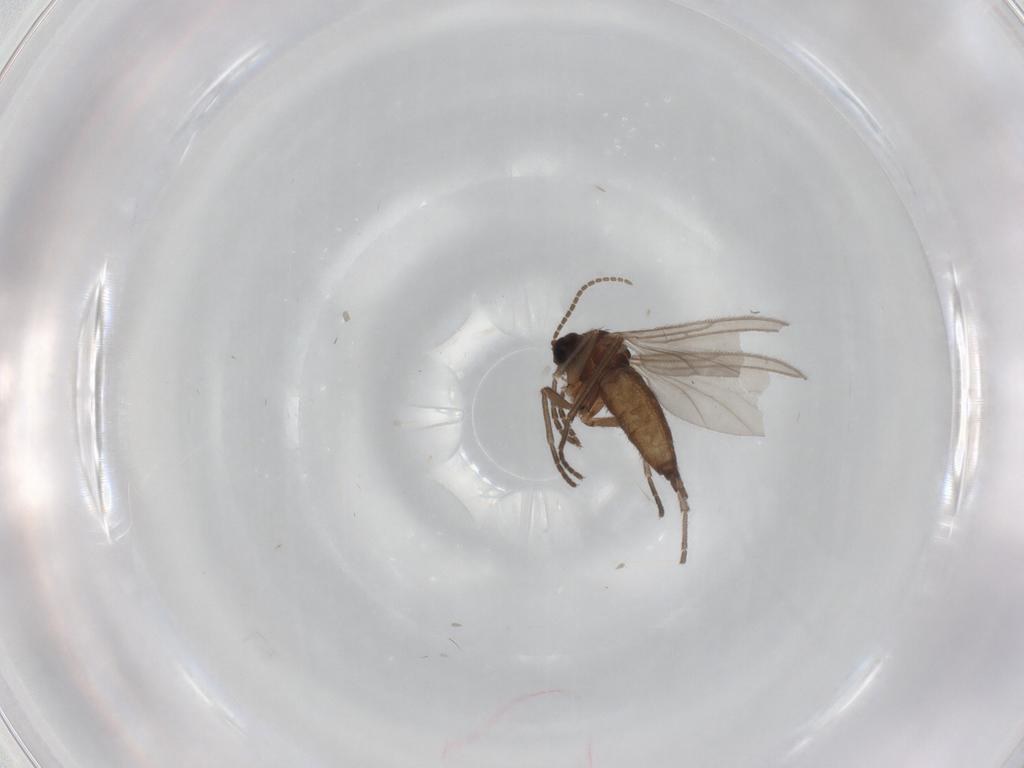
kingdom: Animalia
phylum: Arthropoda
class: Insecta
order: Diptera
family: Sciaridae
